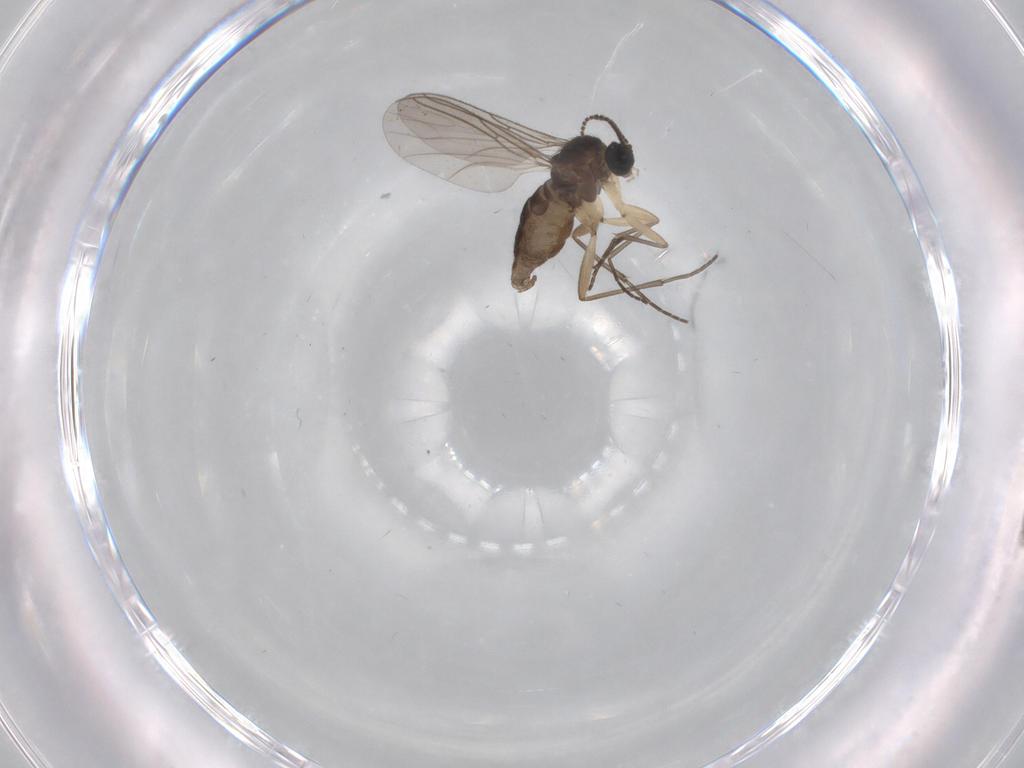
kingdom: Animalia
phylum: Arthropoda
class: Insecta
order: Diptera
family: Sciaridae
